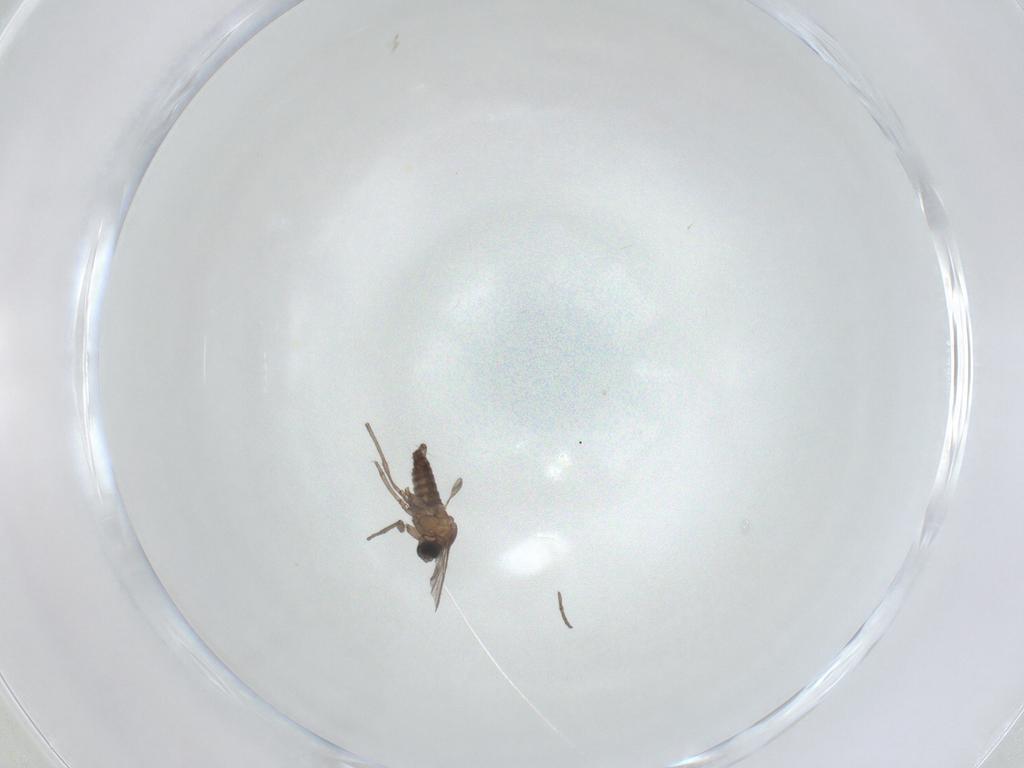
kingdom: Animalia
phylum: Arthropoda
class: Insecta
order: Diptera
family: Sciaridae
